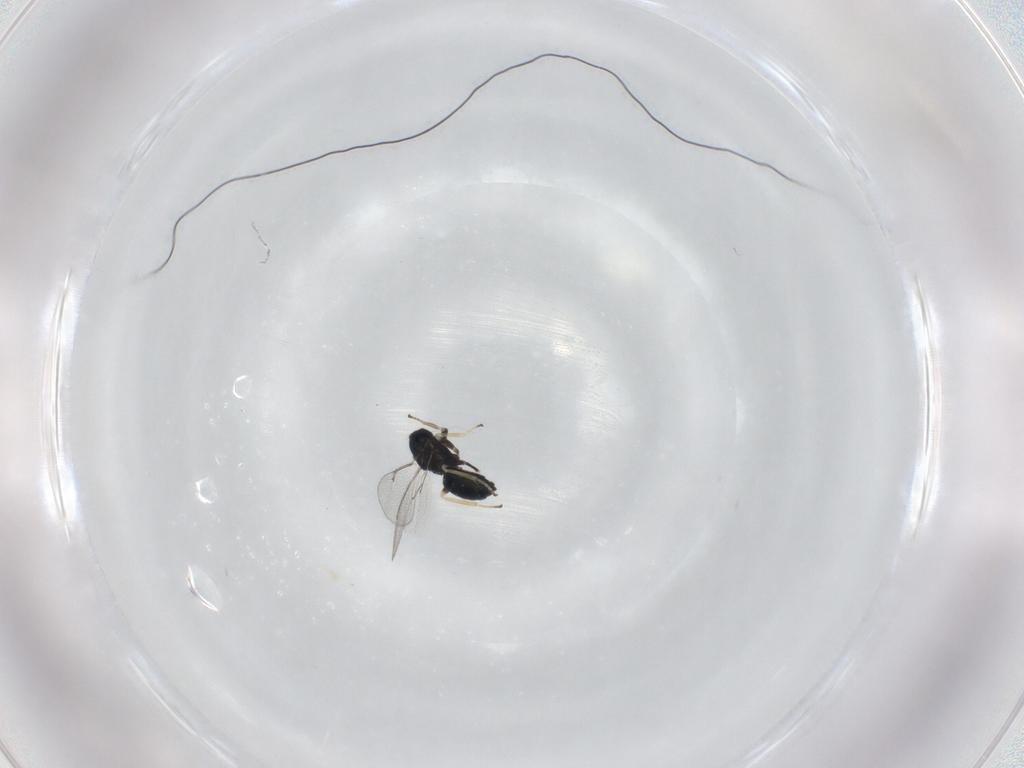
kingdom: Animalia
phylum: Arthropoda
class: Insecta
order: Hymenoptera
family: Eulophidae
